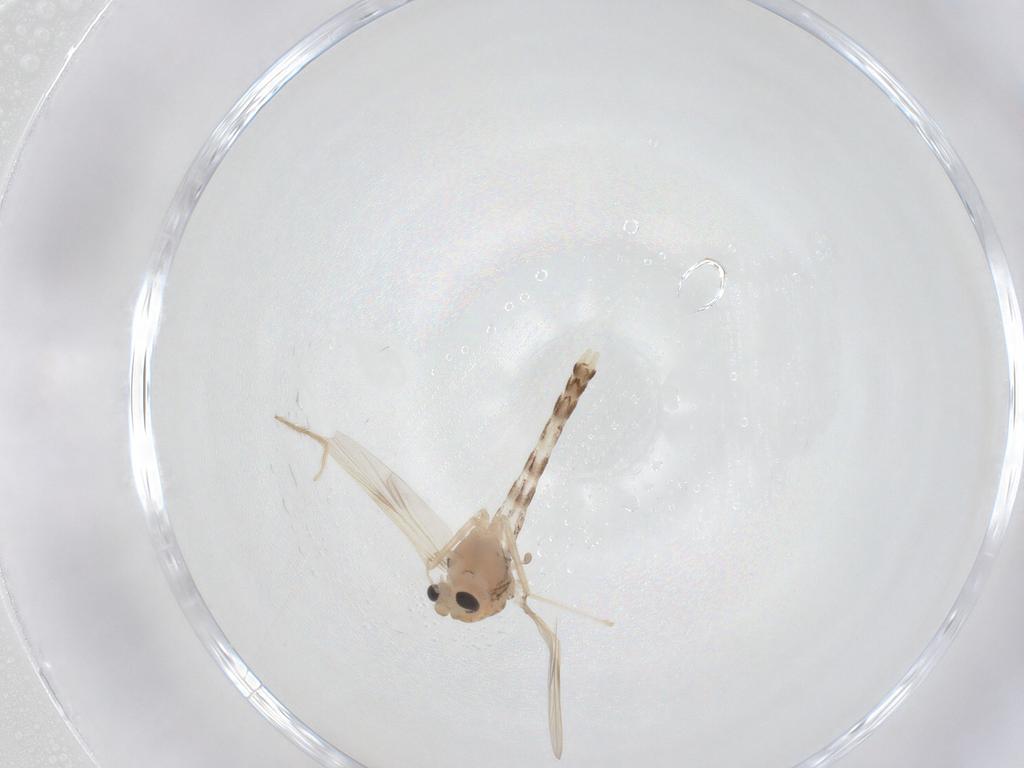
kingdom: Animalia
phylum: Arthropoda
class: Insecta
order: Diptera
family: Chironomidae
